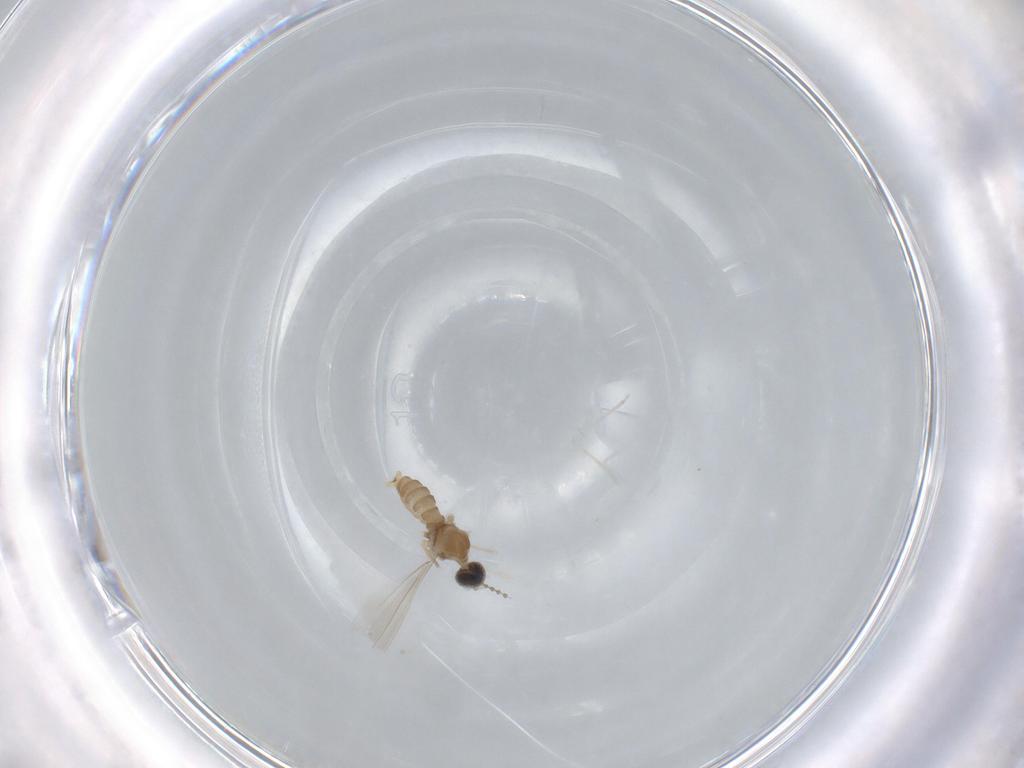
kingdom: Animalia
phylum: Arthropoda
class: Insecta
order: Diptera
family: Cecidomyiidae
